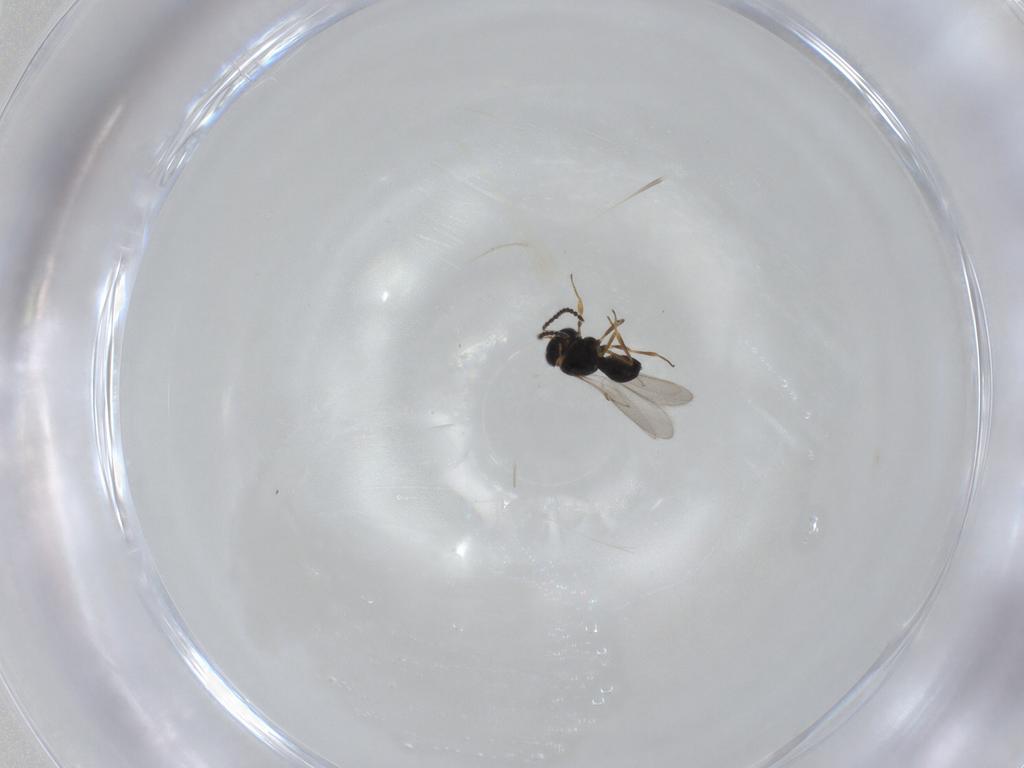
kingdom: Animalia
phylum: Arthropoda
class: Insecta
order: Hymenoptera
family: Scelionidae
